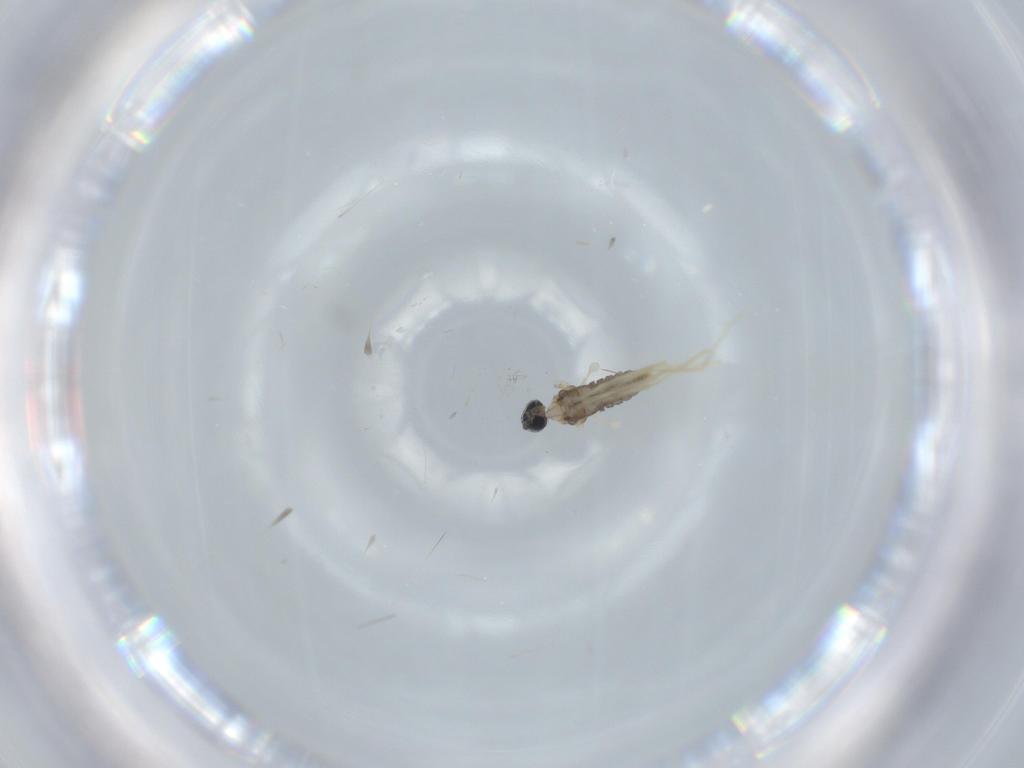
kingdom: Animalia
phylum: Arthropoda
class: Insecta
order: Diptera
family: Cecidomyiidae
